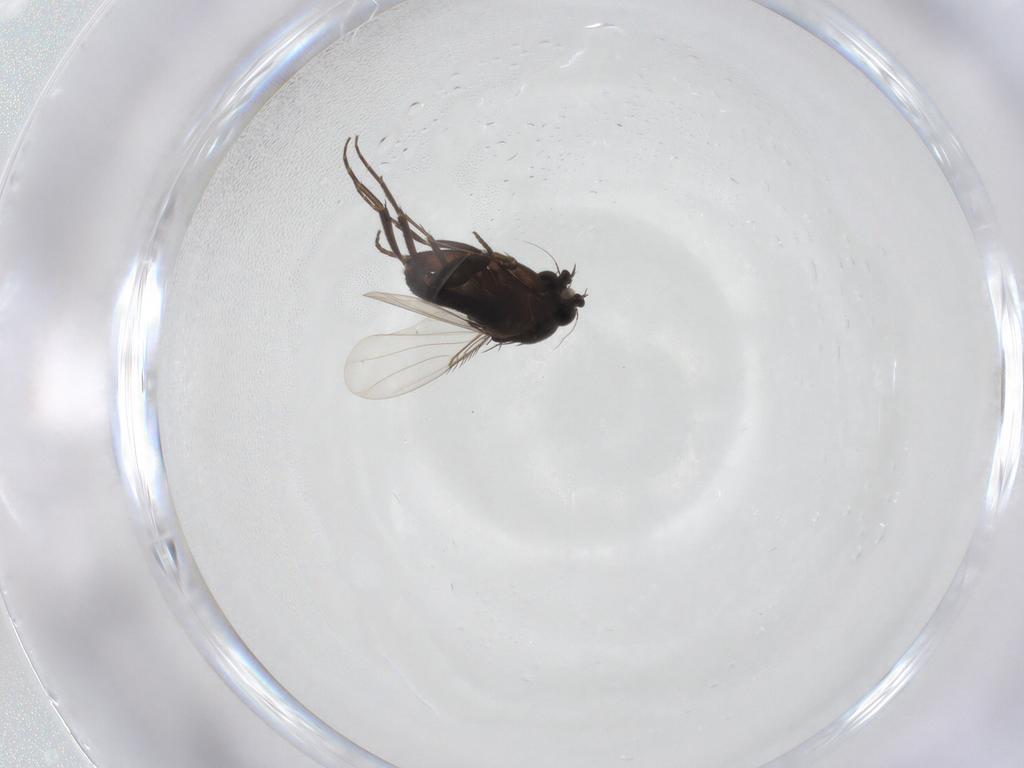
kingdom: Animalia
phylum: Arthropoda
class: Insecta
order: Diptera
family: Phoridae
